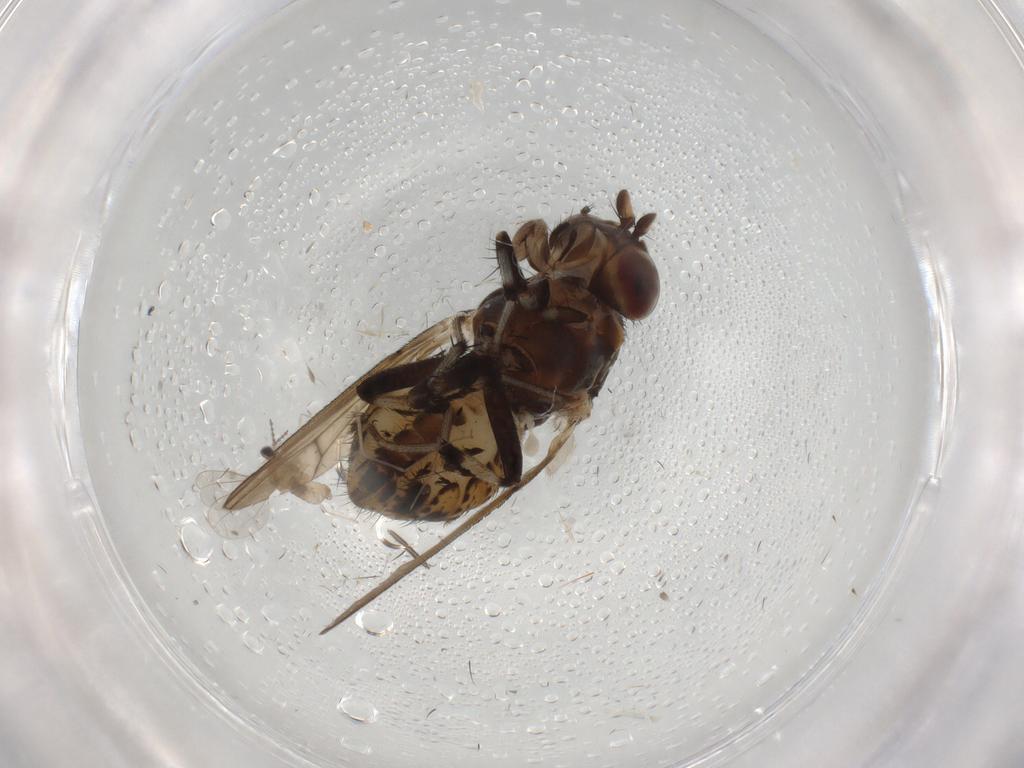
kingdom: Animalia
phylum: Arthropoda
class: Insecta
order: Diptera
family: Lauxaniidae
